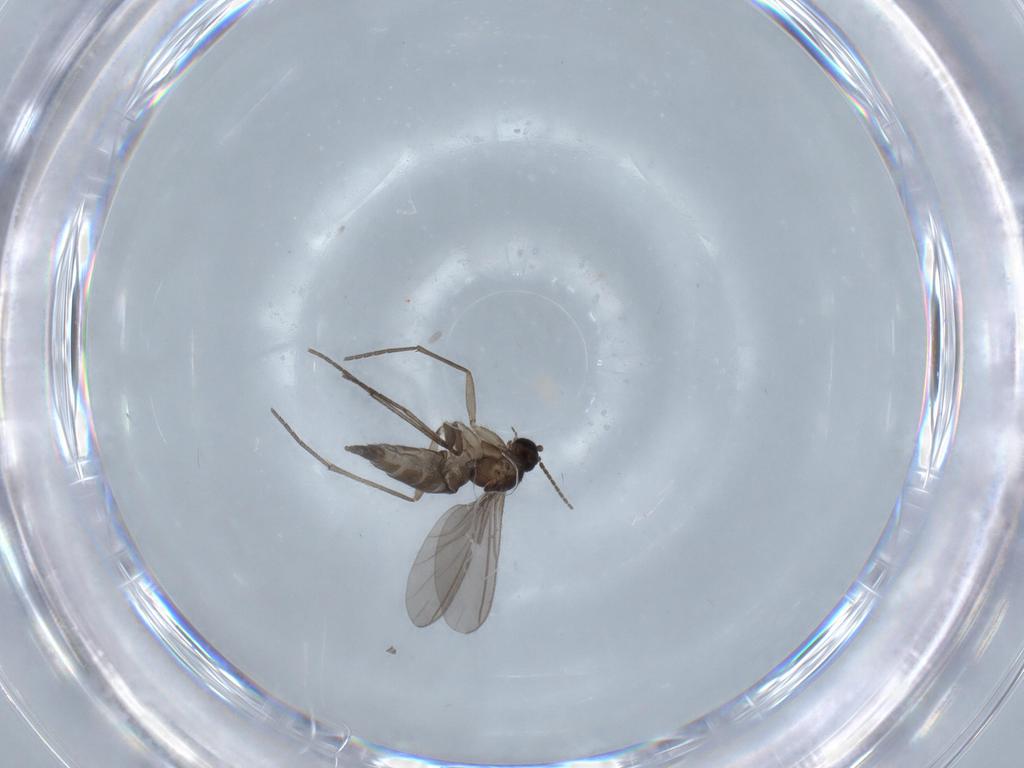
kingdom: Animalia
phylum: Arthropoda
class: Insecta
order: Diptera
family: Sciaridae
